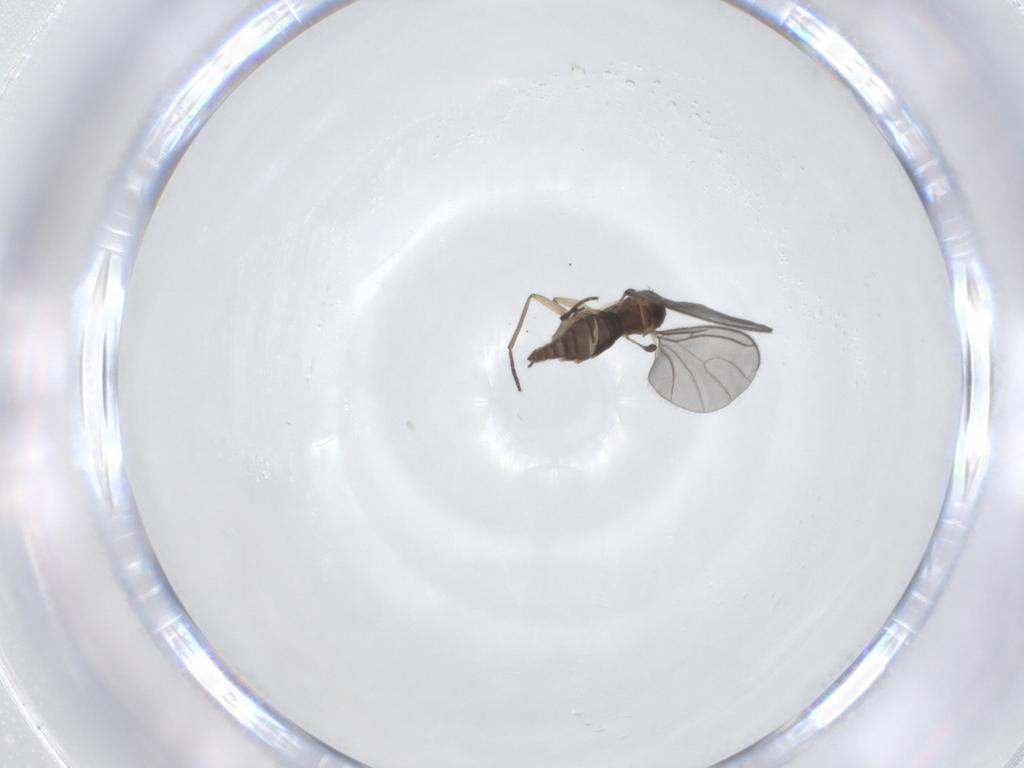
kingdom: Animalia
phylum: Arthropoda
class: Insecta
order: Diptera
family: Sciaridae
